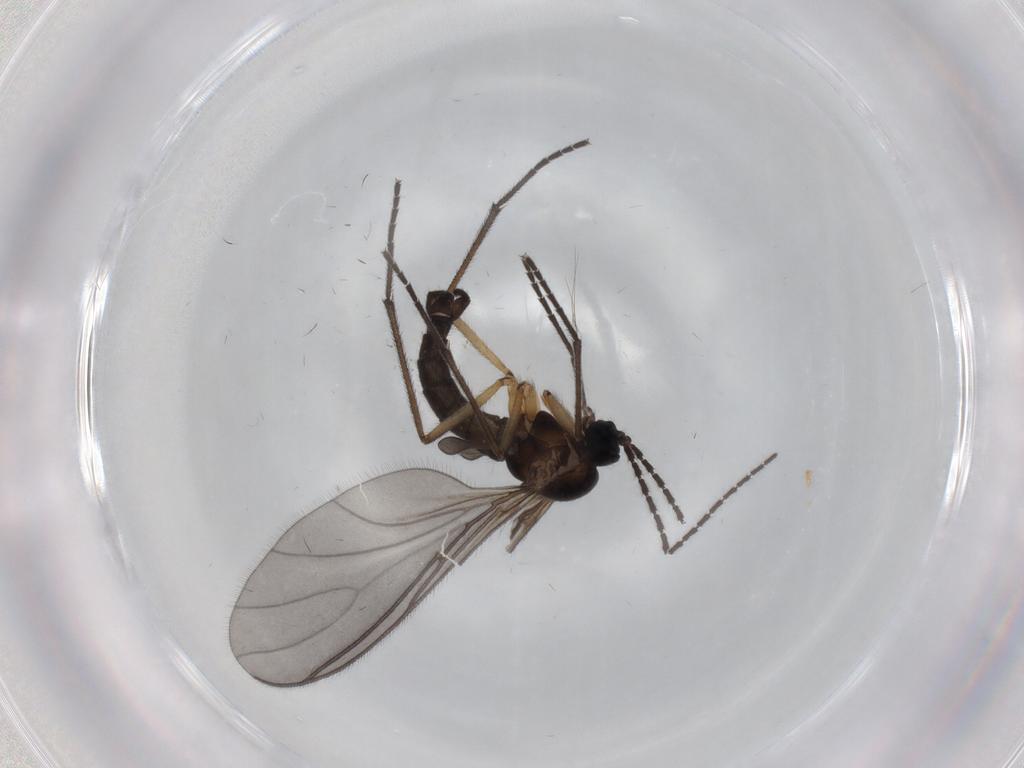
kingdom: Animalia
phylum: Arthropoda
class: Insecta
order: Diptera
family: Sciaridae
